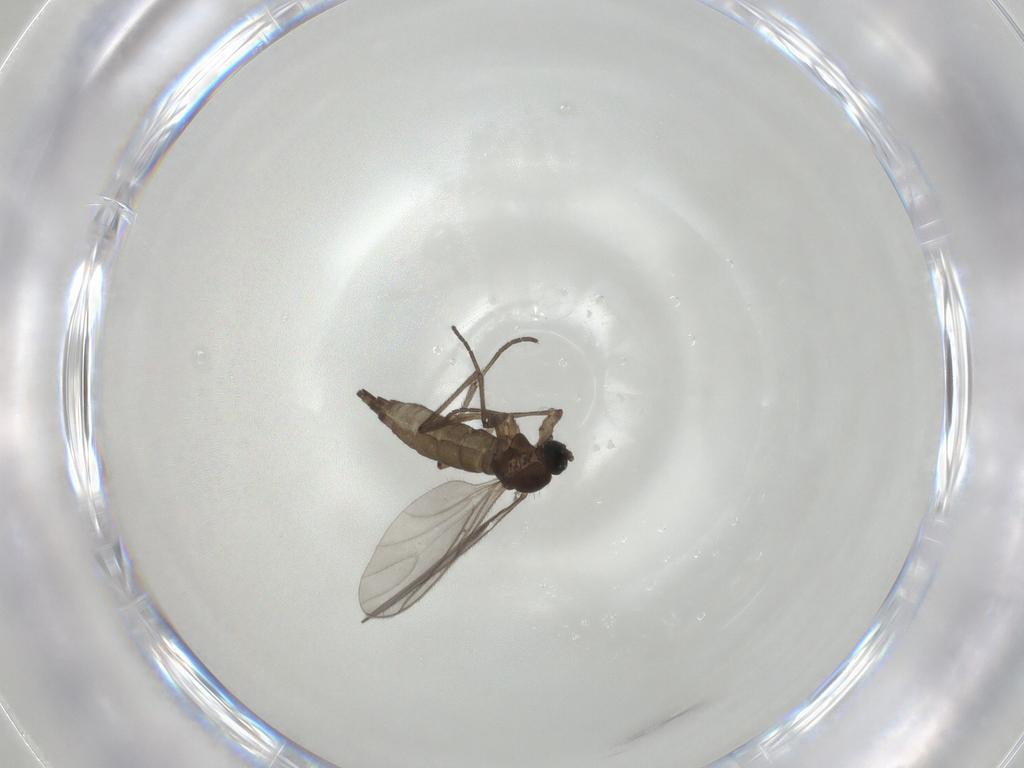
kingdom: Animalia
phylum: Arthropoda
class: Insecta
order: Diptera
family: Sciaridae
